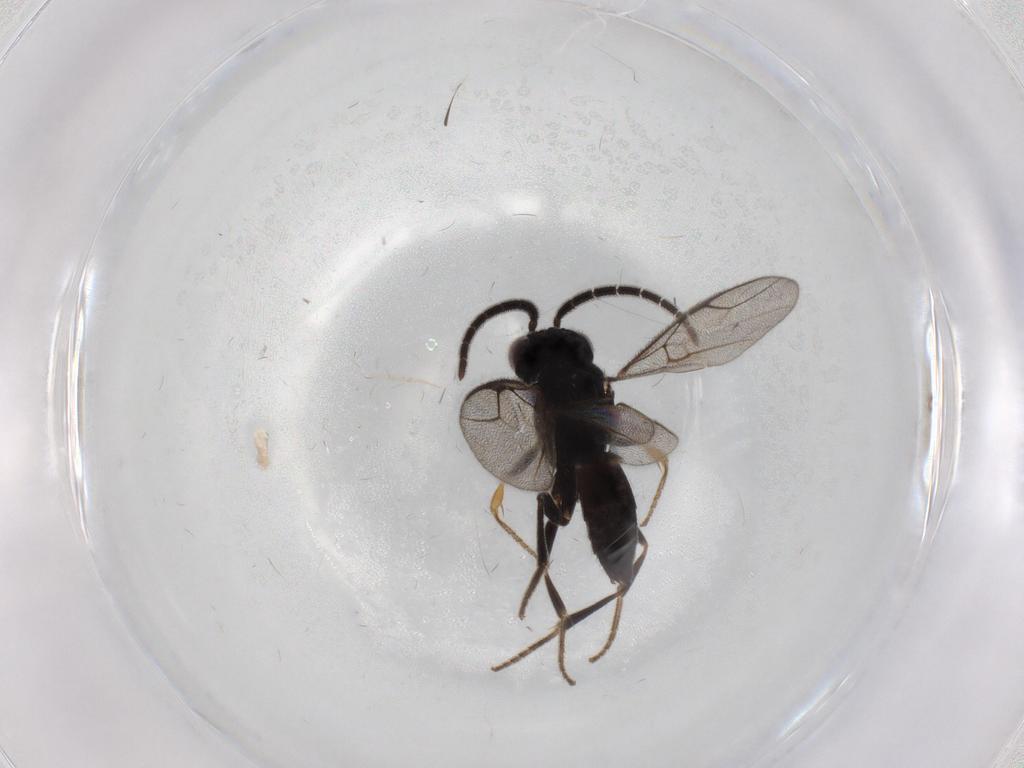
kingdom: Animalia
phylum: Arthropoda
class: Insecta
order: Hymenoptera
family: Dryinidae
